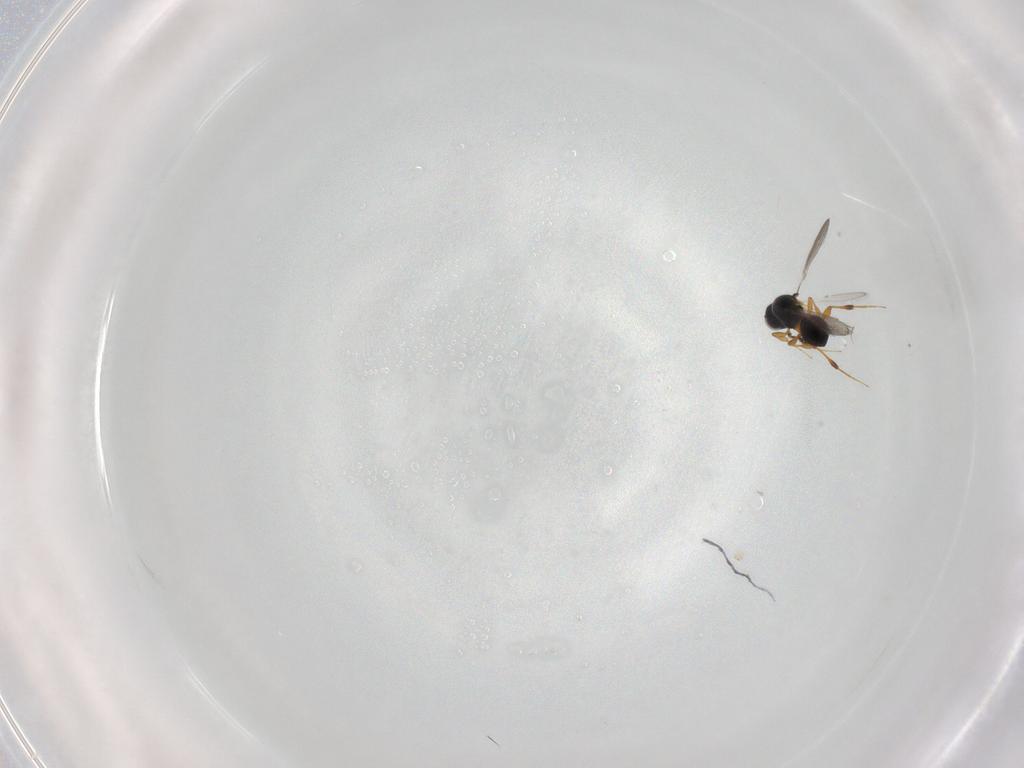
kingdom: Animalia
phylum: Arthropoda
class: Insecta
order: Hymenoptera
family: Platygastridae
